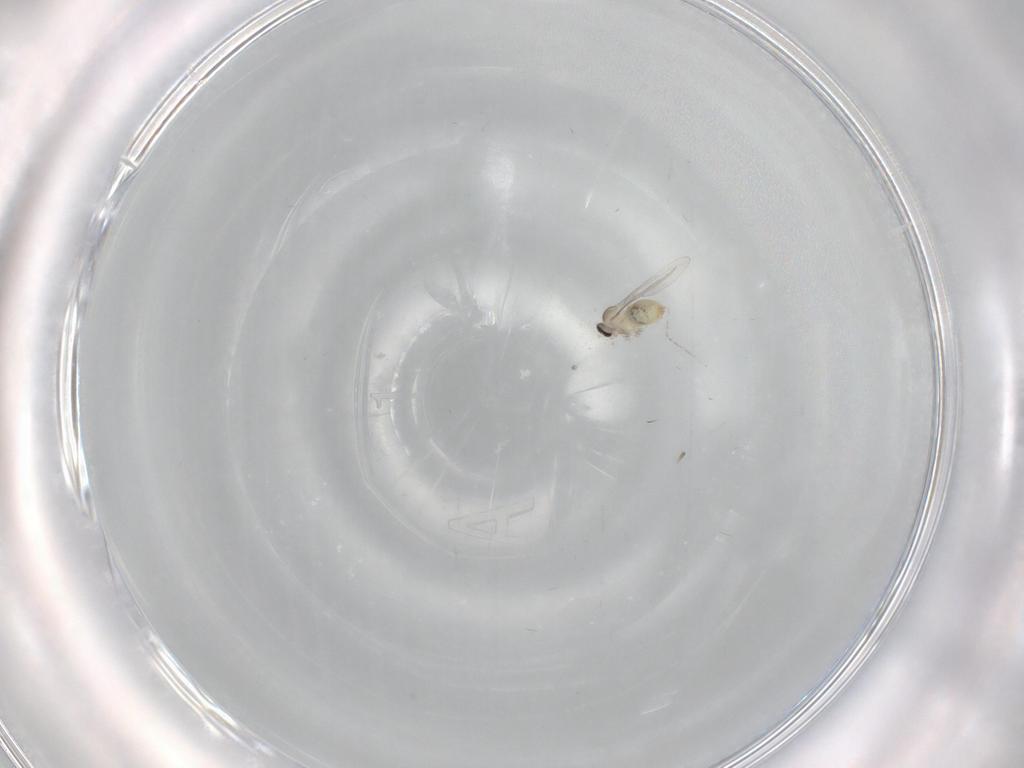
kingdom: Animalia
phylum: Arthropoda
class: Insecta
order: Diptera
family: Cecidomyiidae
